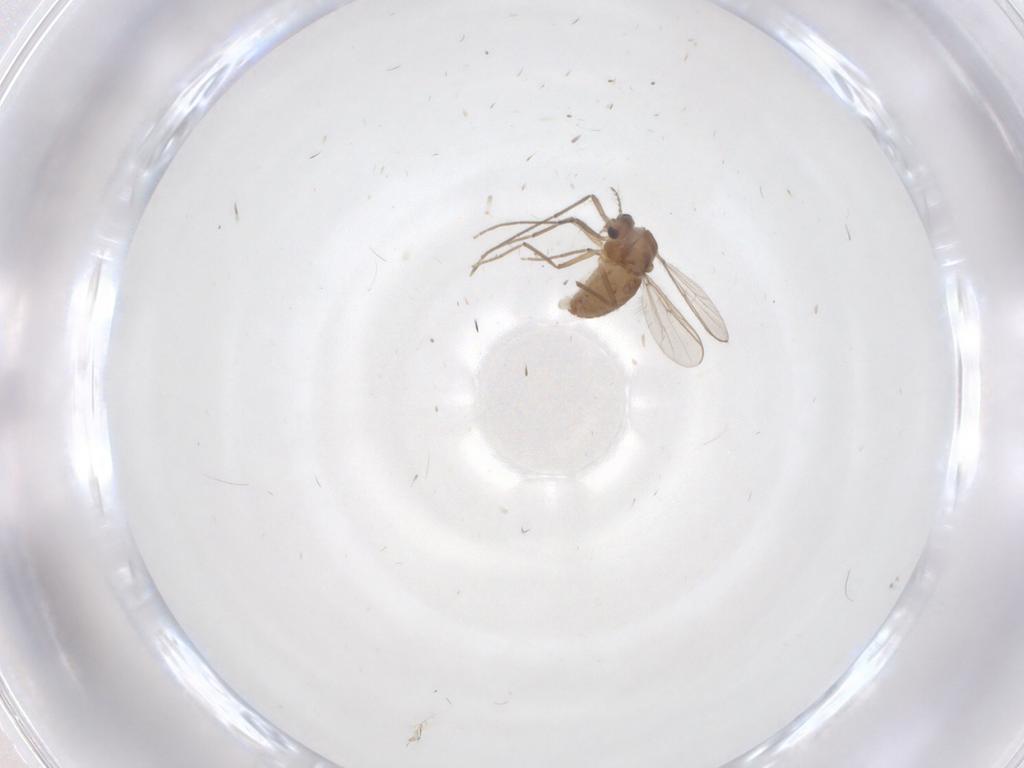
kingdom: Animalia
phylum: Arthropoda
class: Insecta
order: Diptera
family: Chironomidae
